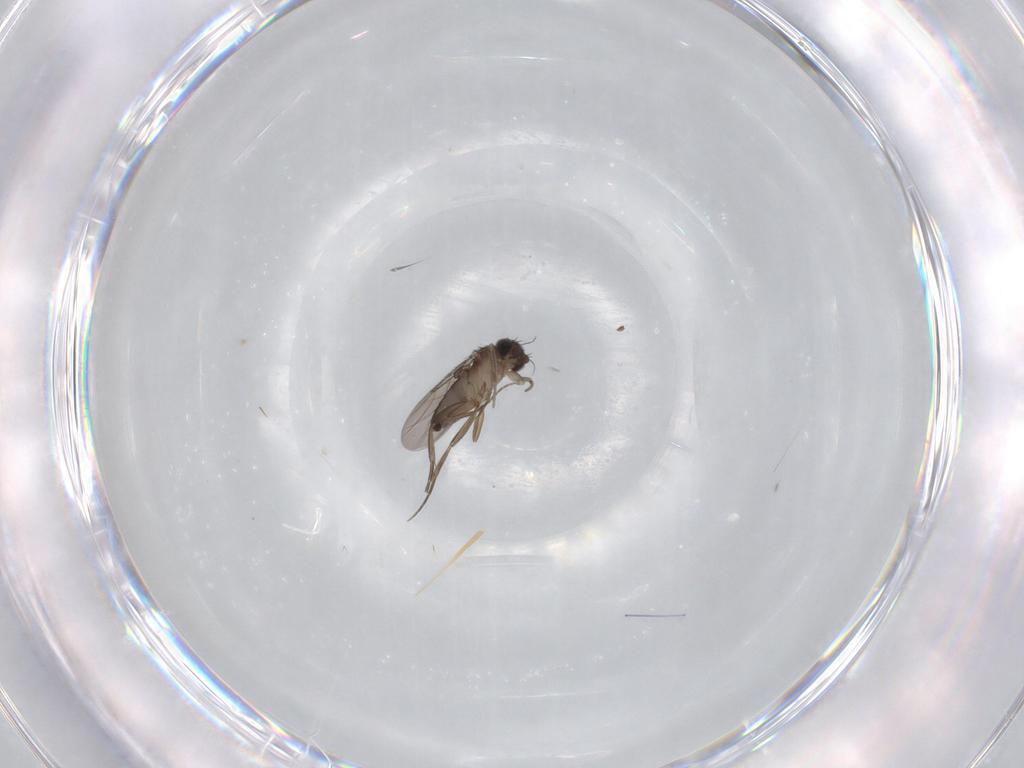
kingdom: Animalia
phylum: Arthropoda
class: Insecta
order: Diptera
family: Phoridae
